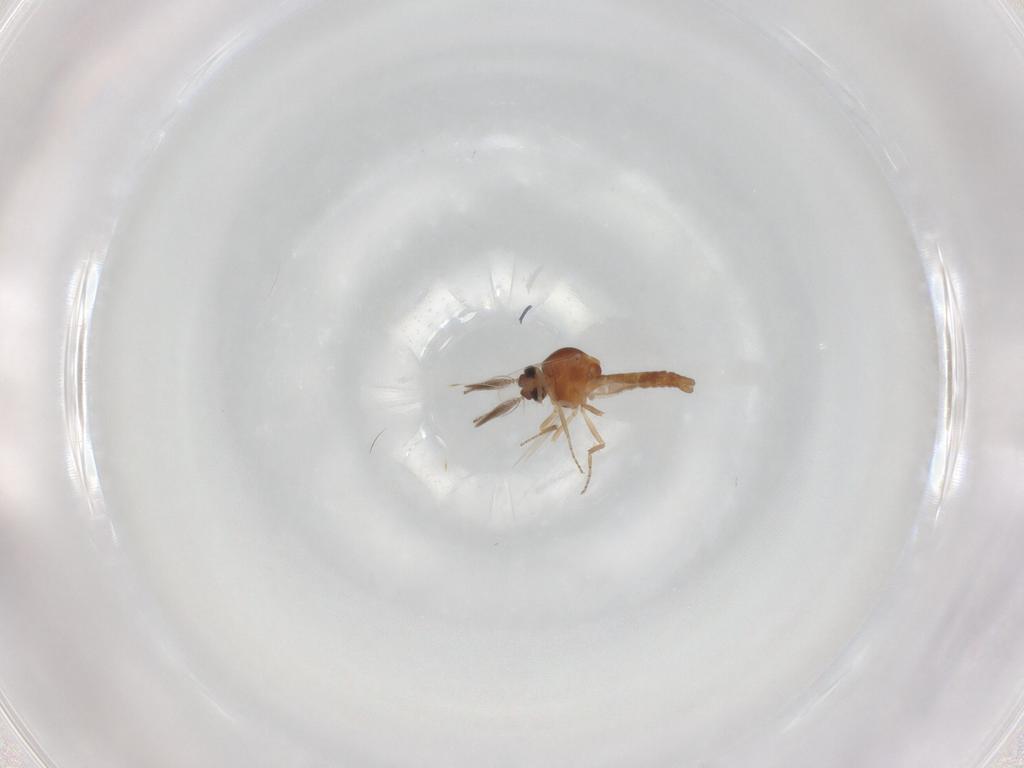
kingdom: Animalia
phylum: Arthropoda
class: Insecta
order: Diptera
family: Ceratopogonidae
